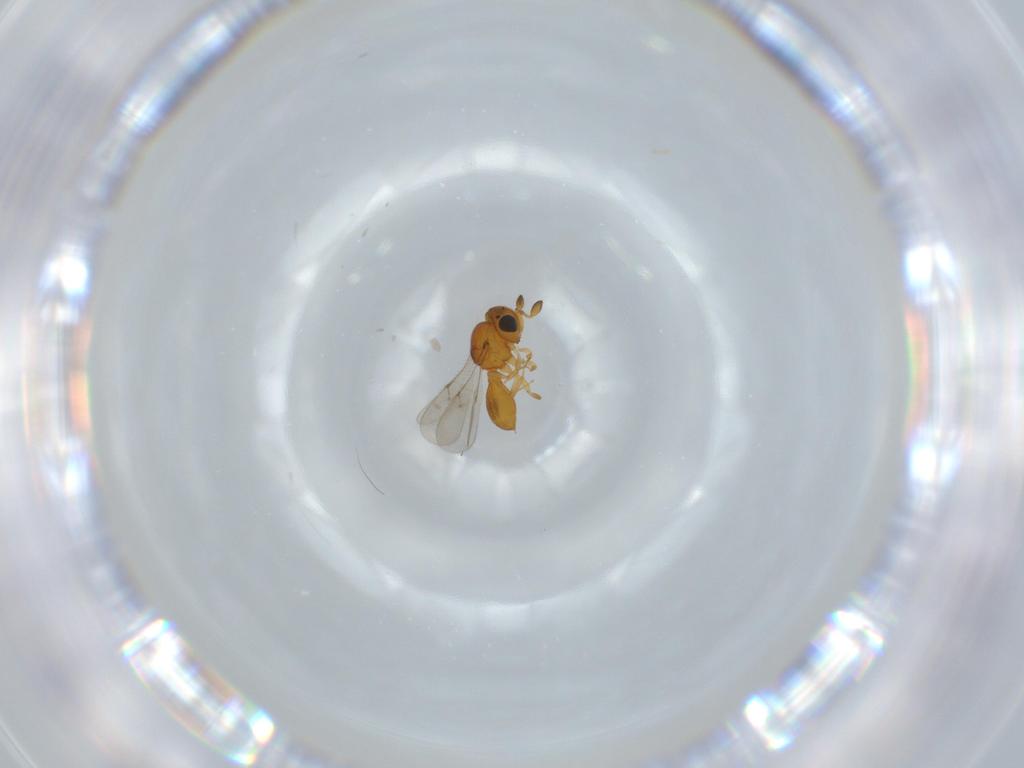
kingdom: Animalia
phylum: Arthropoda
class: Insecta
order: Hymenoptera
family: Scelionidae
